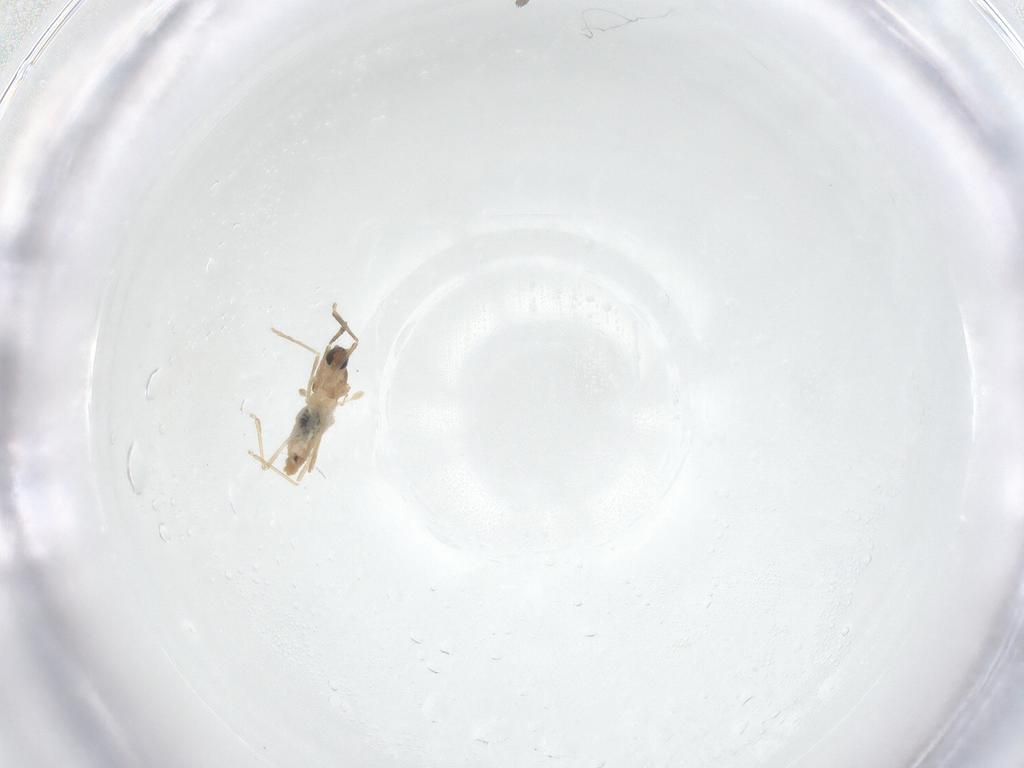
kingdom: Animalia
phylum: Arthropoda
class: Insecta
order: Diptera
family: Cecidomyiidae
